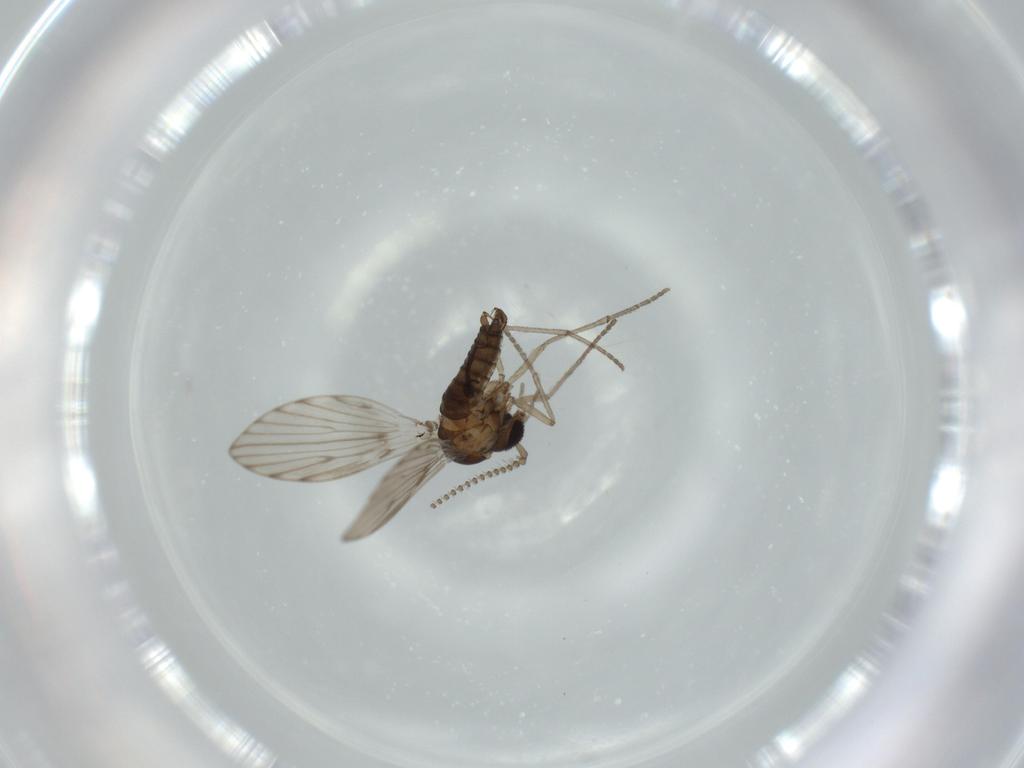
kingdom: Animalia
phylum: Arthropoda
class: Insecta
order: Diptera
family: Psychodidae
